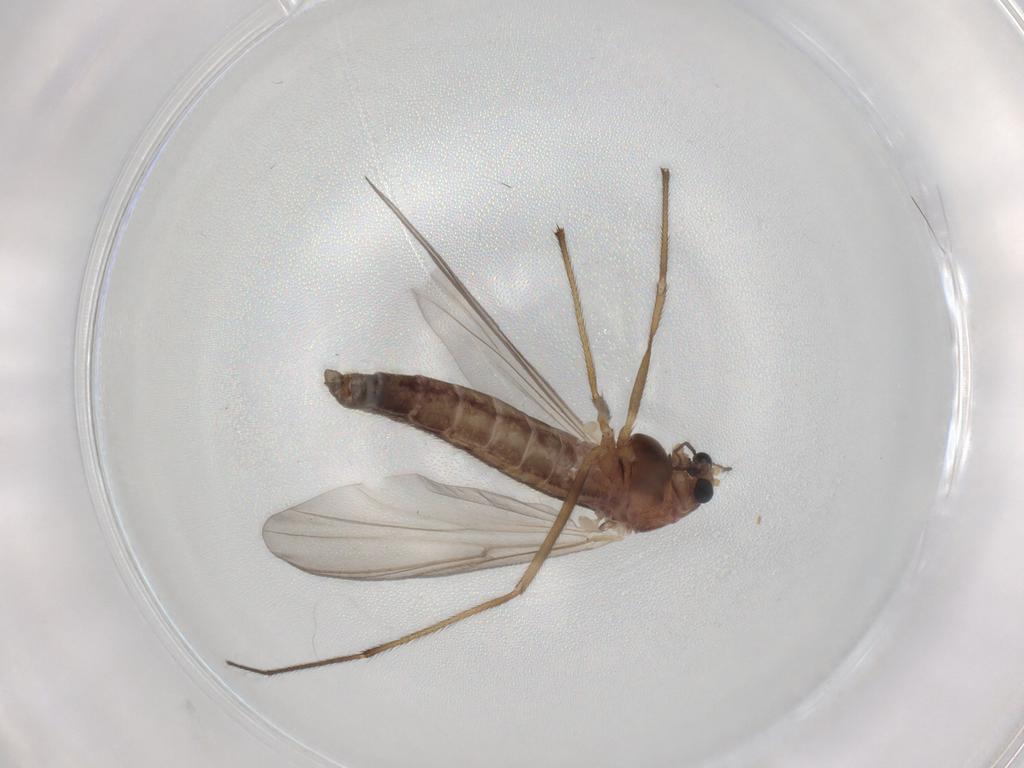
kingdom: Animalia
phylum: Arthropoda
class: Insecta
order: Diptera
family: Chironomidae
